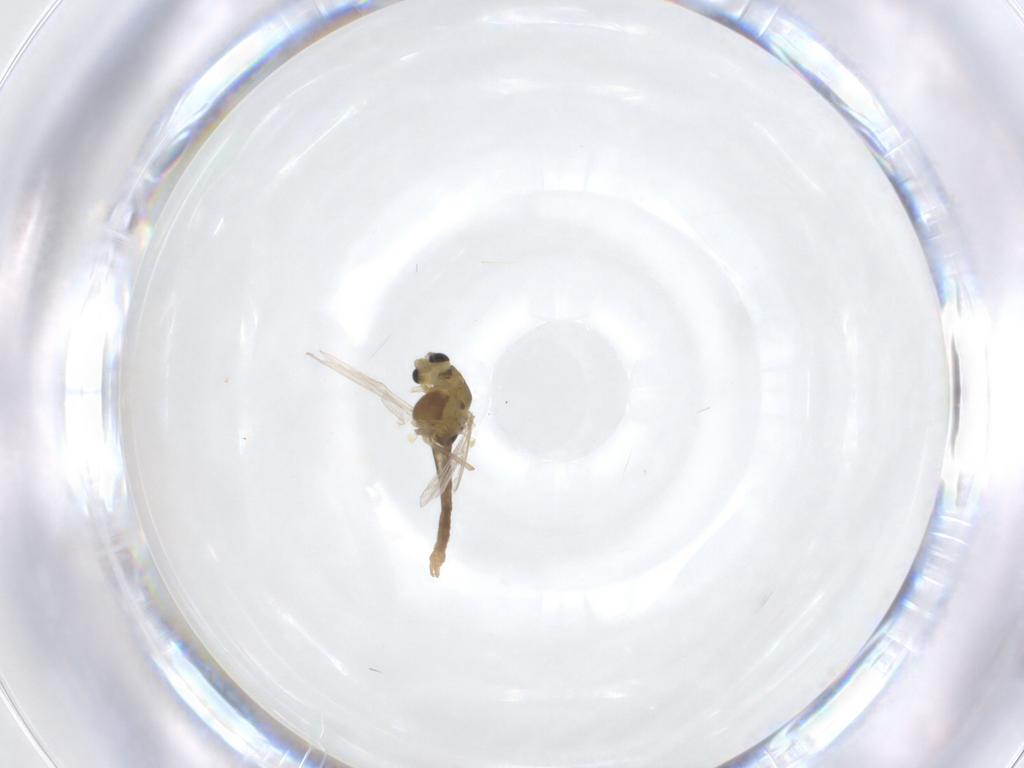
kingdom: Animalia
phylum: Arthropoda
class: Insecta
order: Diptera
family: Chironomidae
